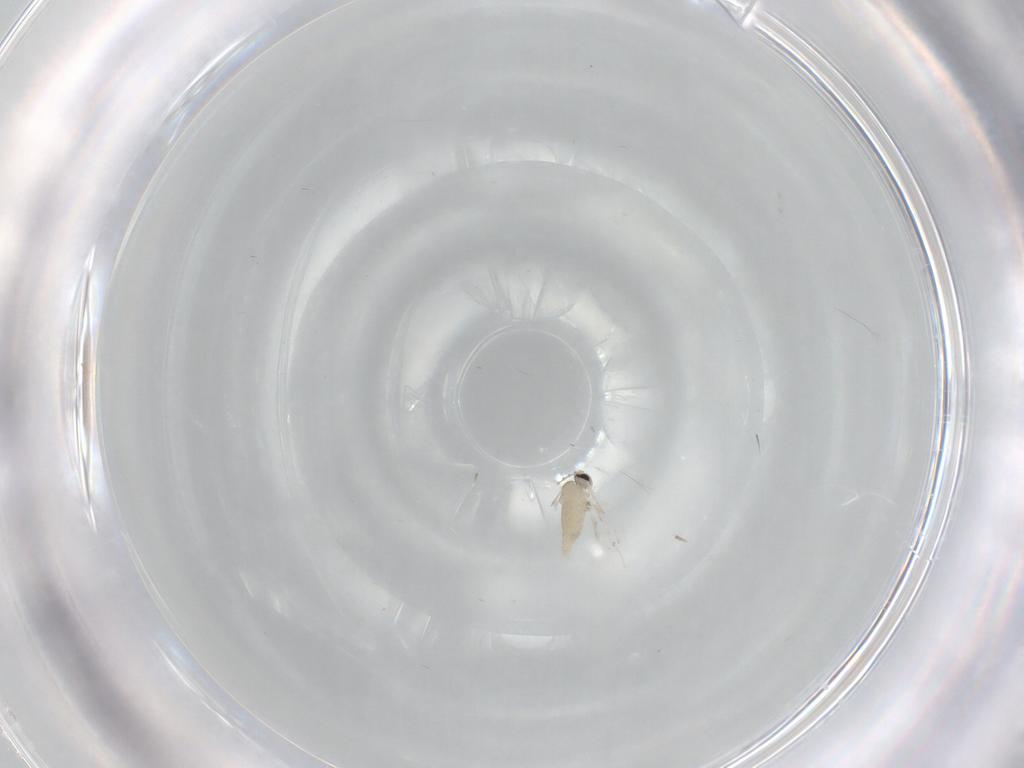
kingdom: Animalia
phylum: Arthropoda
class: Insecta
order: Diptera
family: Cecidomyiidae
